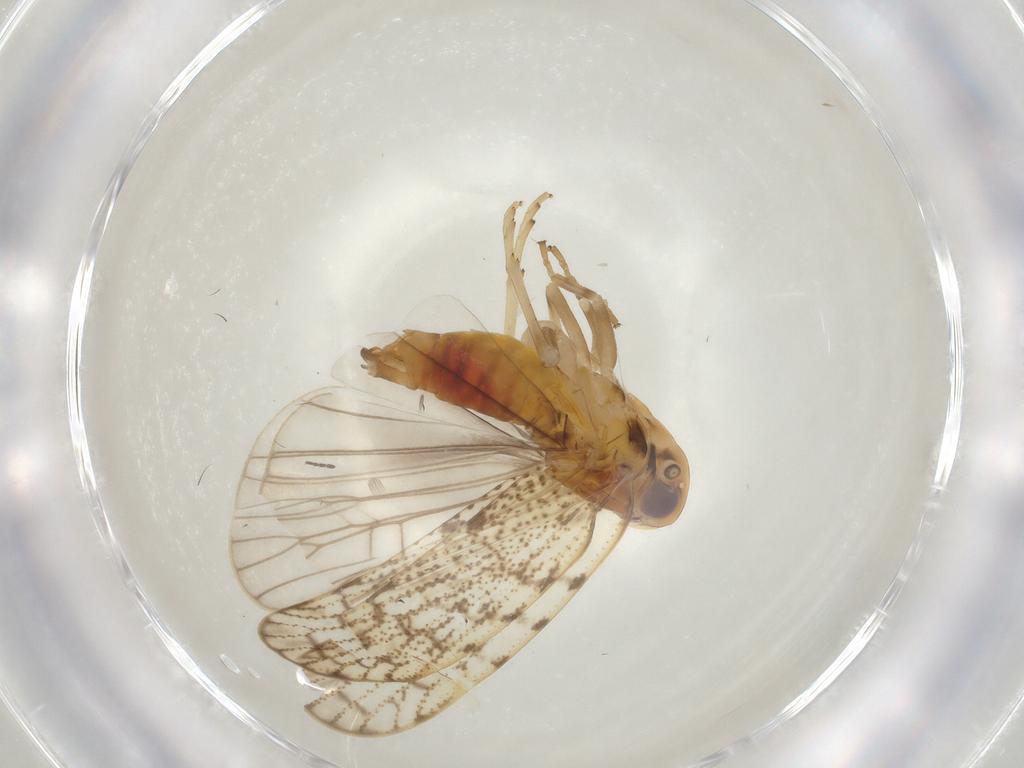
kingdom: Animalia
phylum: Arthropoda
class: Insecta
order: Diptera
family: Sciaridae
